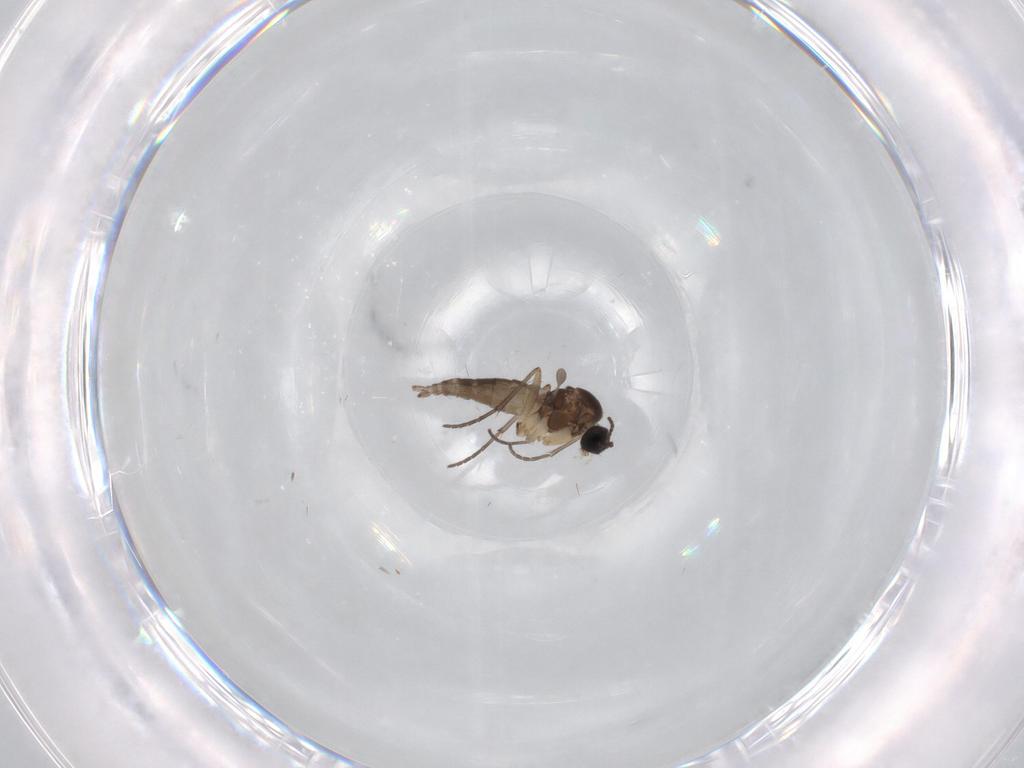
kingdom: Animalia
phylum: Arthropoda
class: Insecta
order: Diptera
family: Sciaridae
